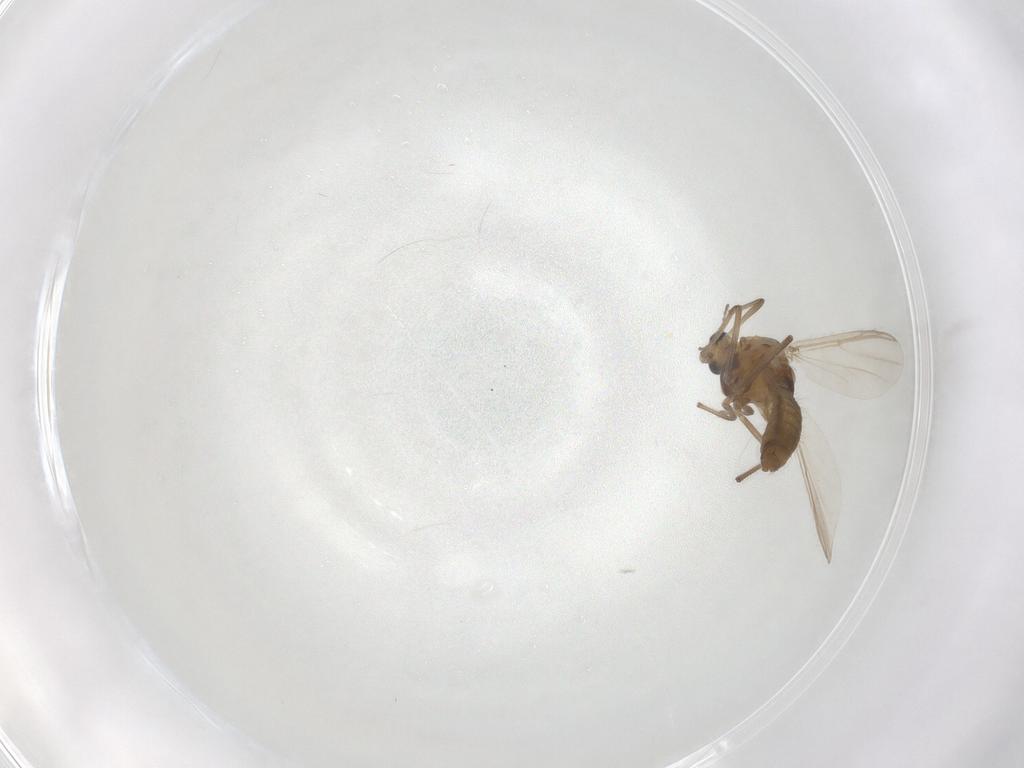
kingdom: Animalia
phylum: Arthropoda
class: Insecta
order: Diptera
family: Chironomidae
